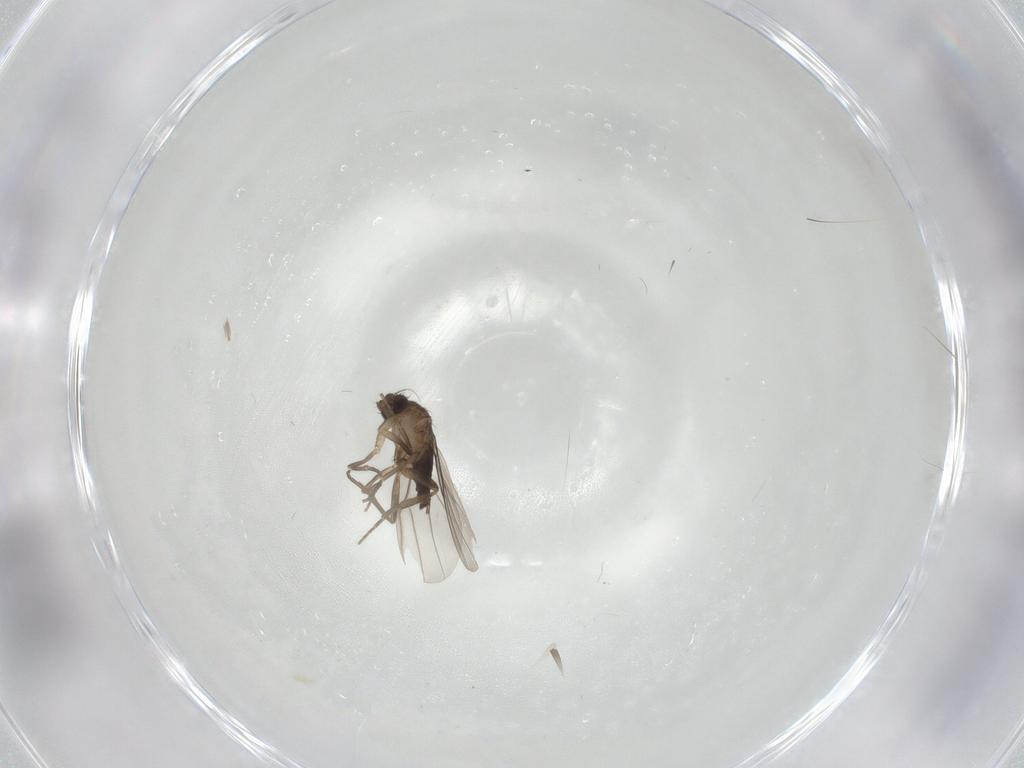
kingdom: Animalia
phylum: Arthropoda
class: Insecta
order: Diptera
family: Phoridae
